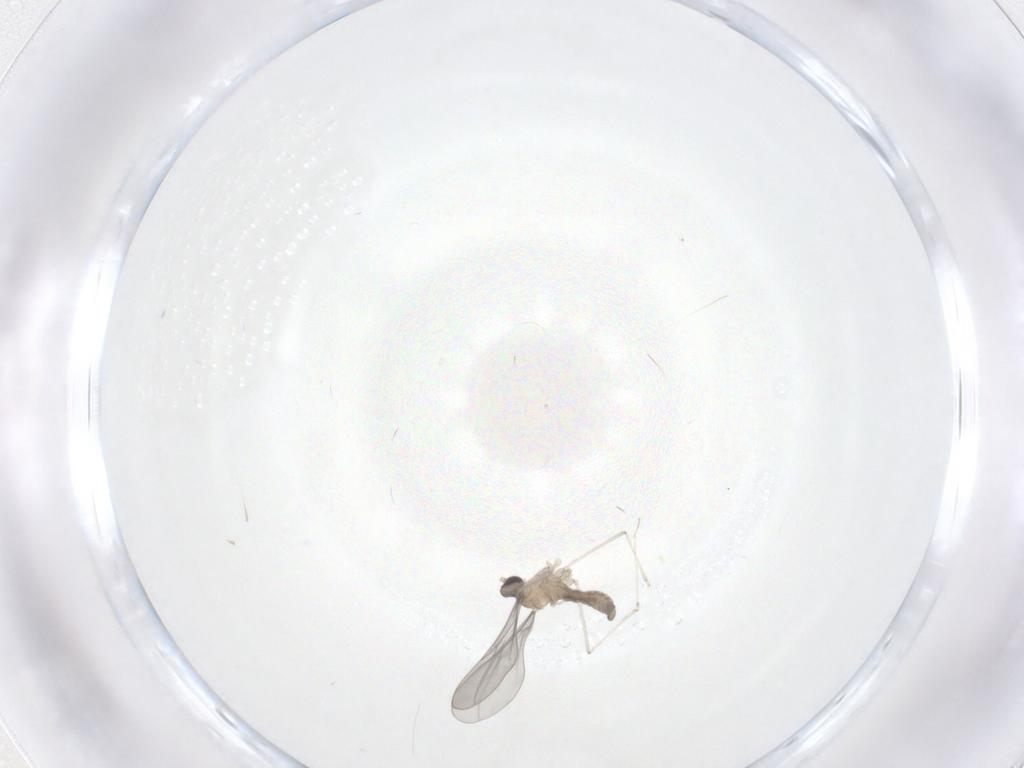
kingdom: Animalia
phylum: Arthropoda
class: Insecta
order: Diptera
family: Cecidomyiidae
